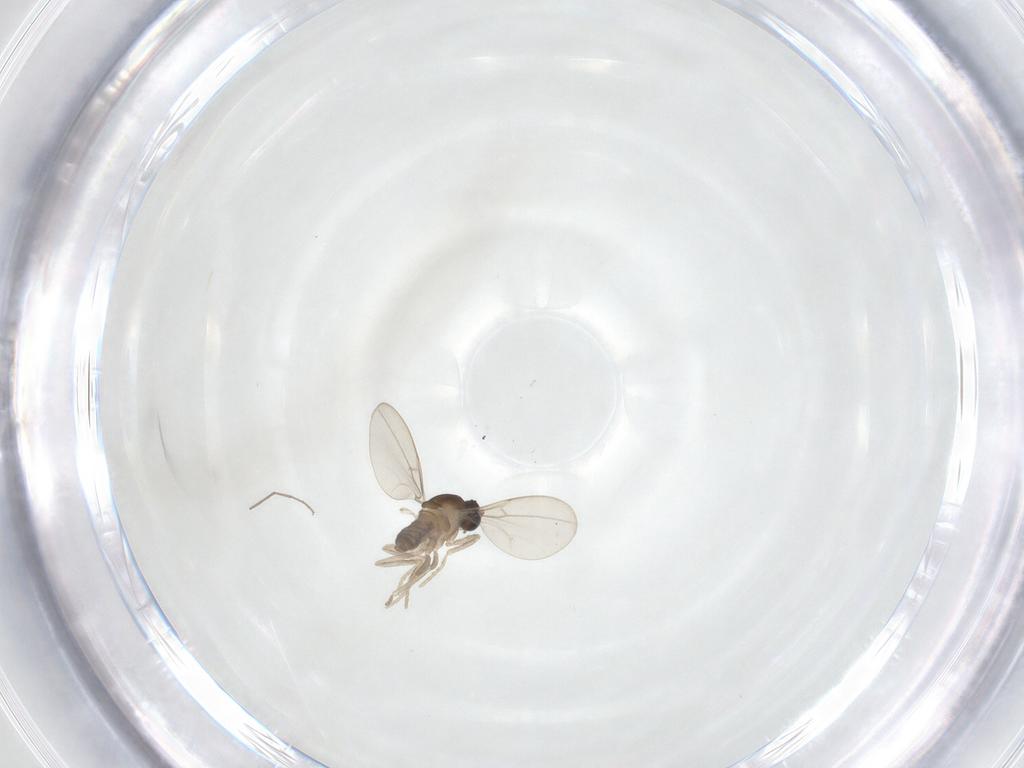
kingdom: Animalia
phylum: Arthropoda
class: Insecta
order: Diptera
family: Cecidomyiidae
